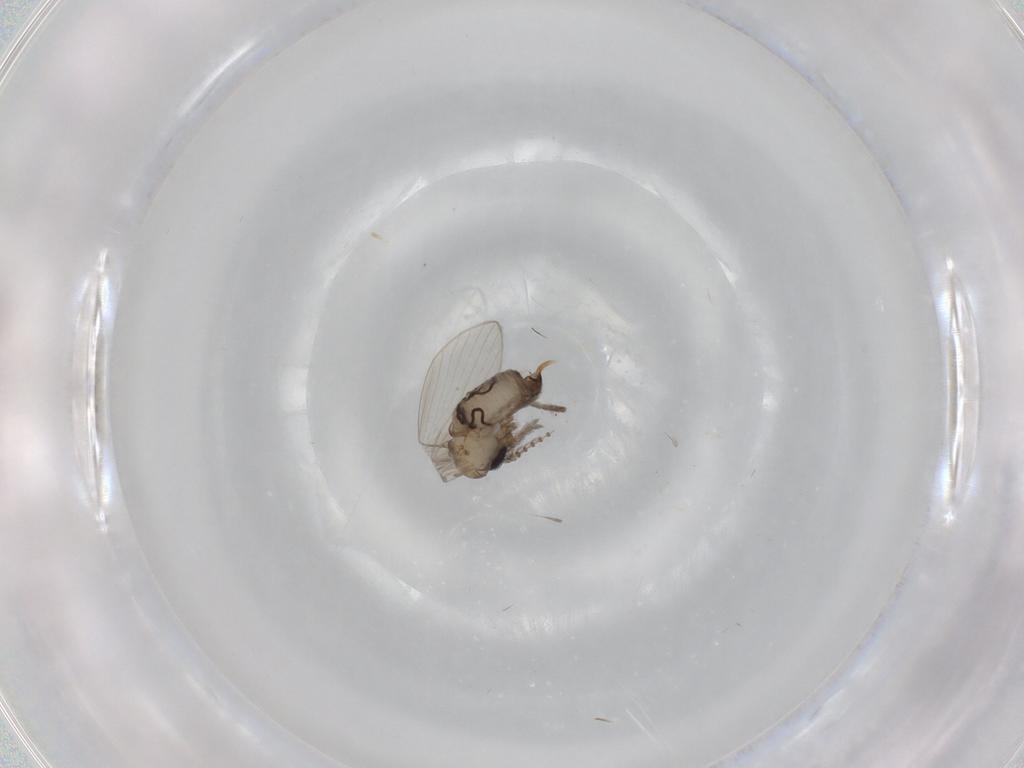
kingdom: Animalia
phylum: Arthropoda
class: Insecta
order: Diptera
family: Psychodidae
